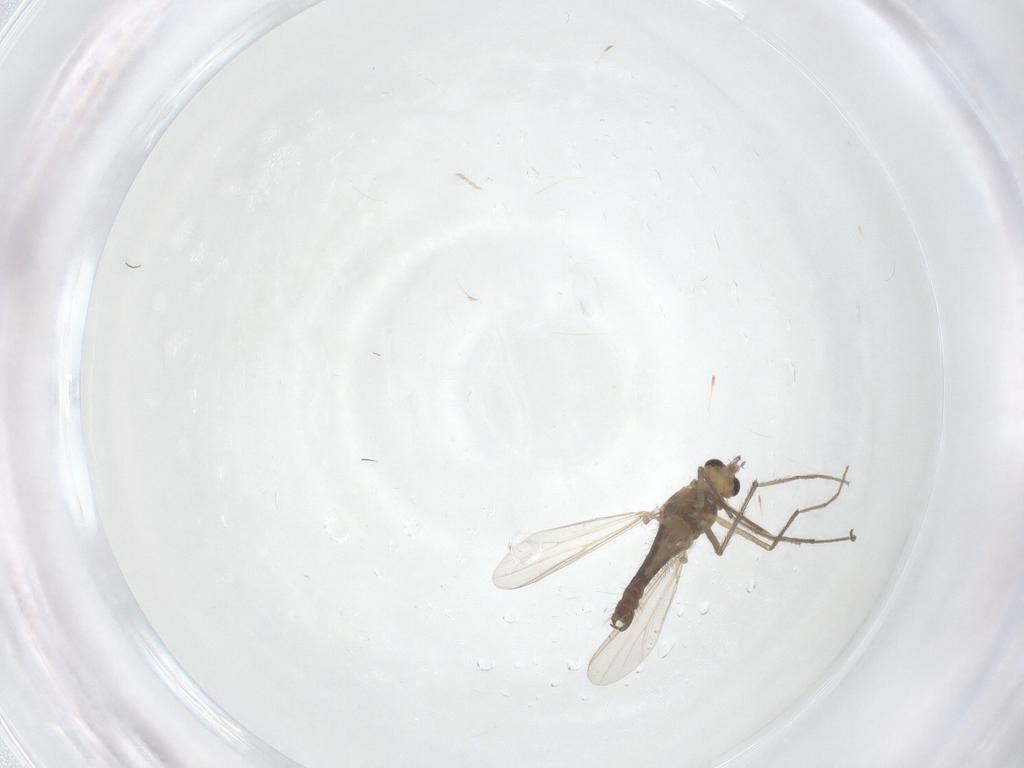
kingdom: Animalia
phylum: Arthropoda
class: Insecta
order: Diptera
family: Chironomidae
